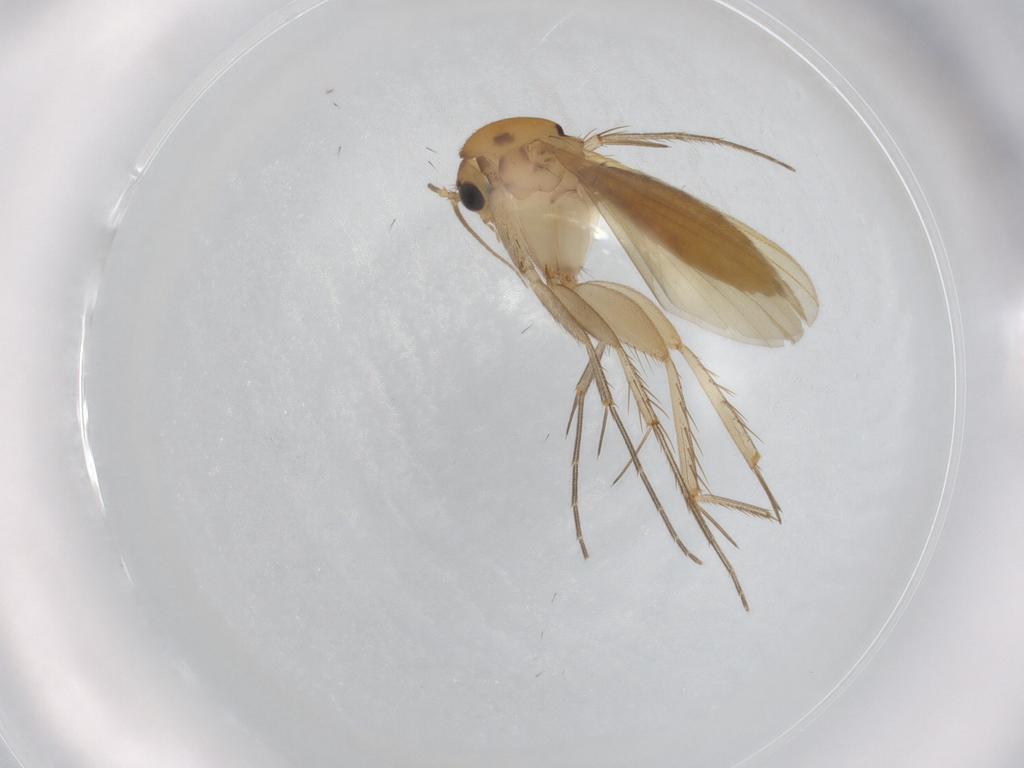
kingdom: Animalia
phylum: Arthropoda
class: Insecta
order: Diptera
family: Mycetophilidae
